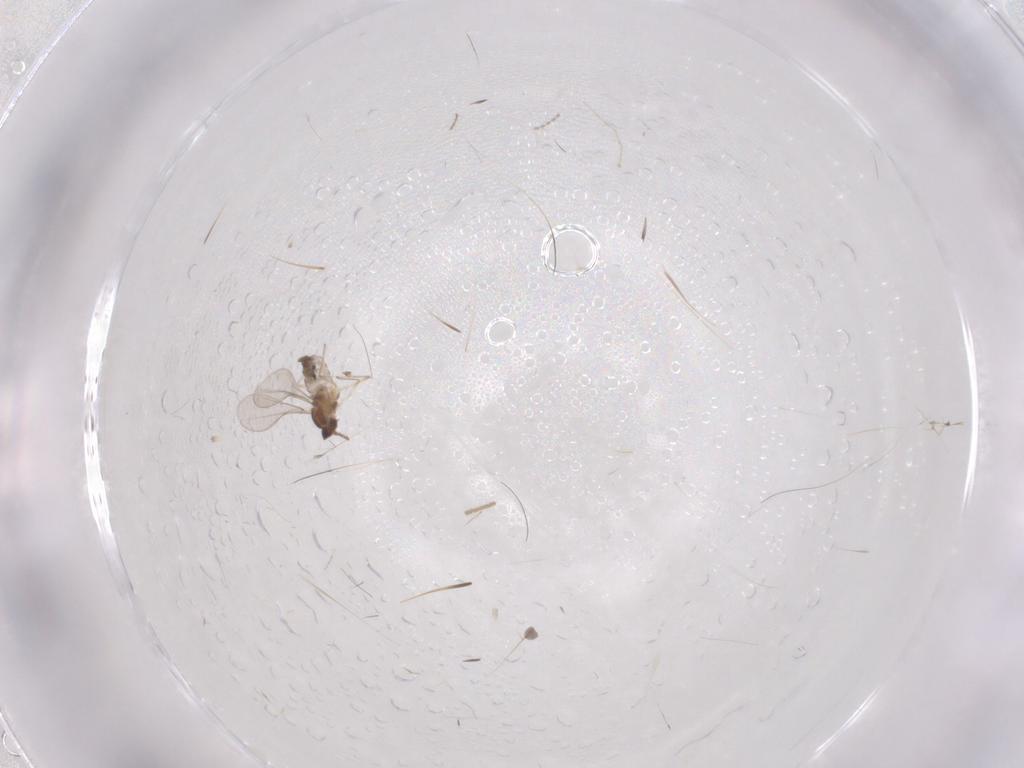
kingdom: Animalia
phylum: Arthropoda
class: Insecta
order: Diptera
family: Cecidomyiidae
